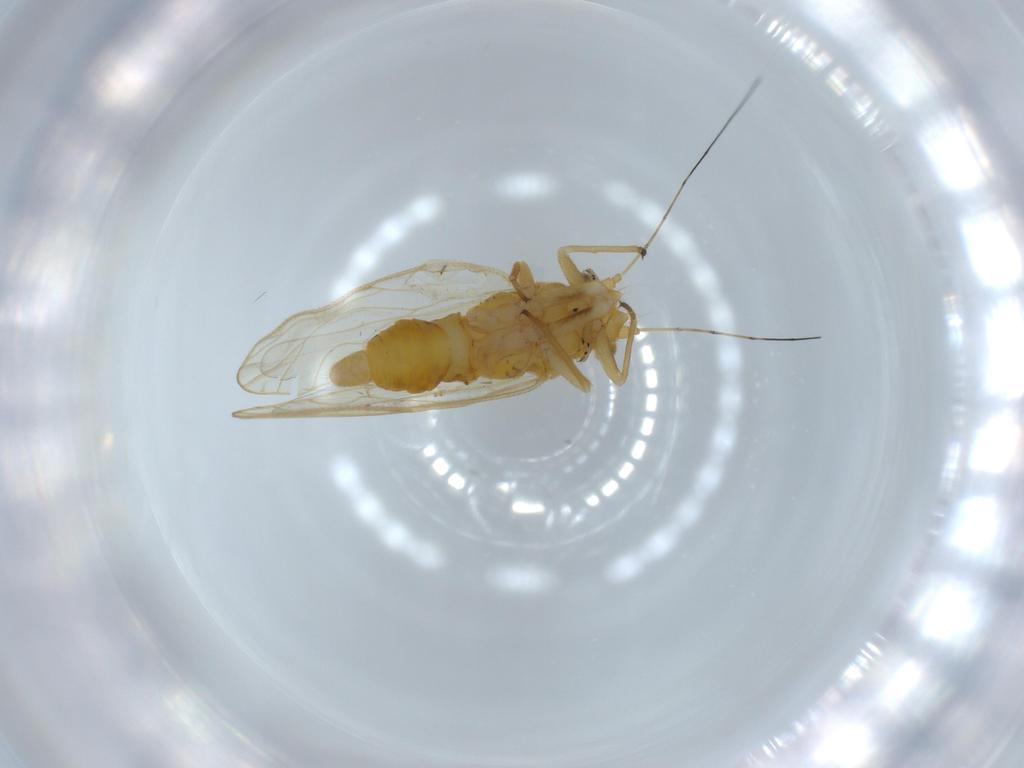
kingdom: Animalia
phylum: Arthropoda
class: Insecta
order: Hemiptera
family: Psyllidae
